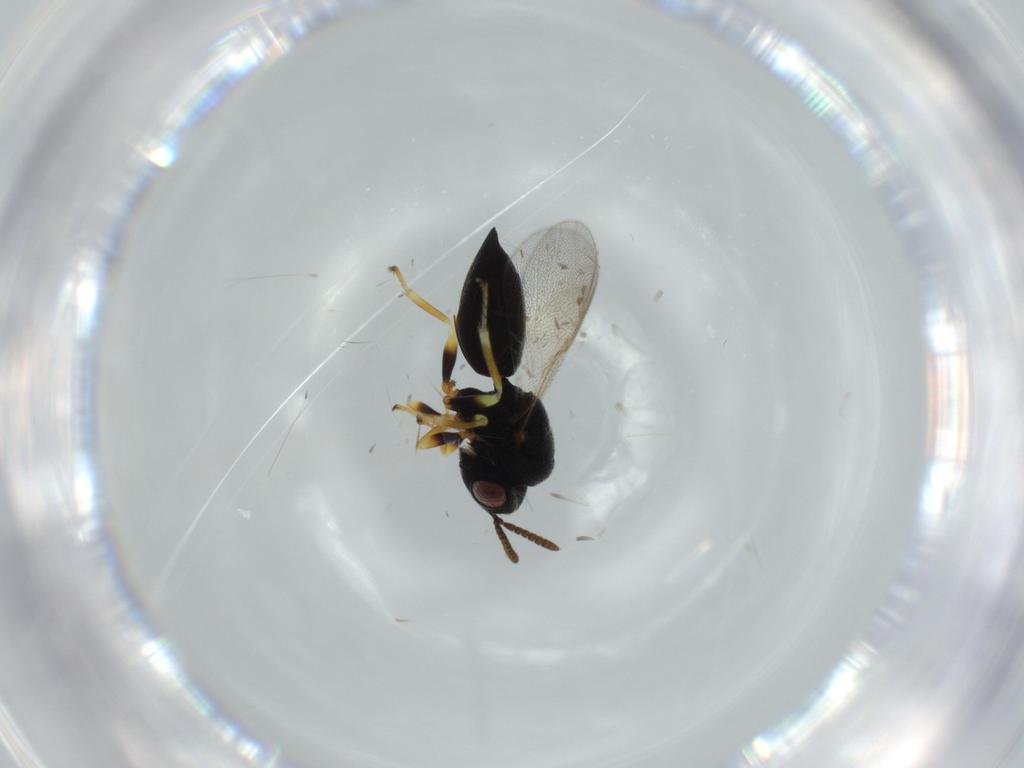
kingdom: Animalia
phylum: Arthropoda
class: Insecta
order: Hymenoptera
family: Eurytomidae
